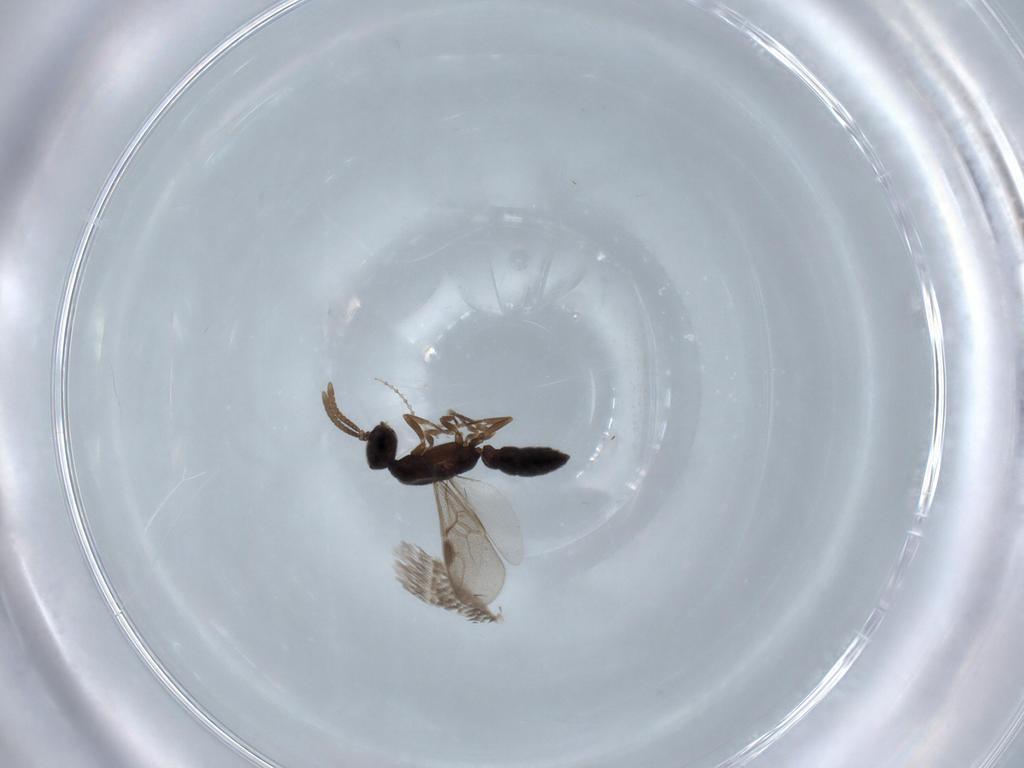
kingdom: Animalia
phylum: Arthropoda
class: Insecta
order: Hymenoptera
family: Formicidae
